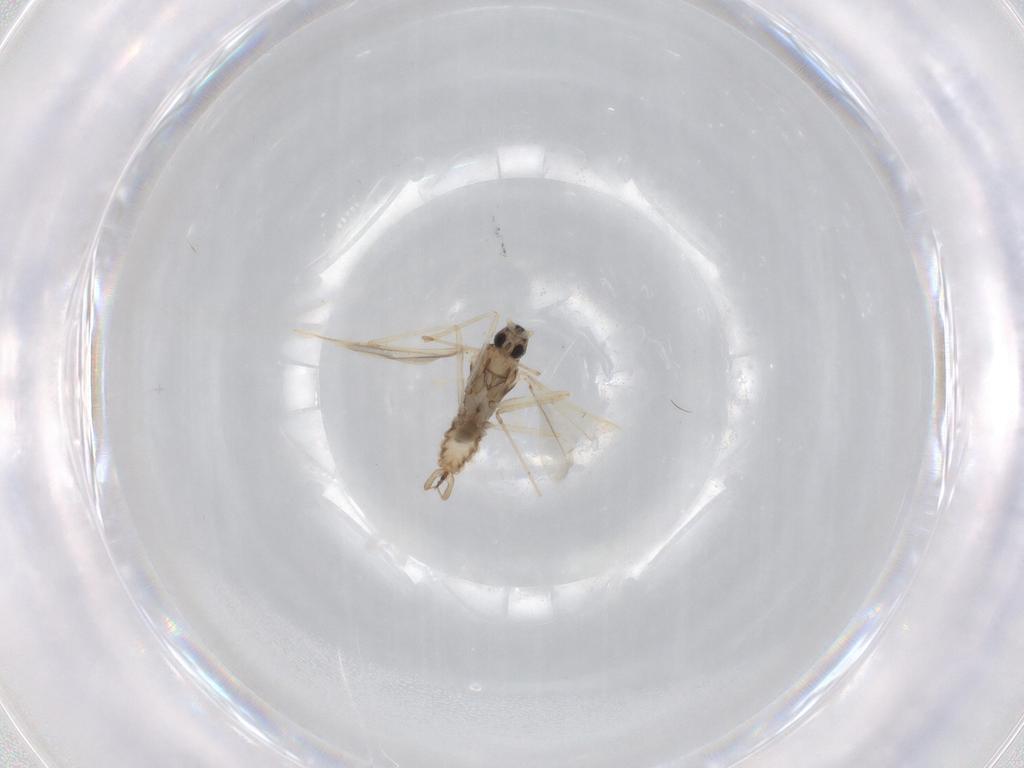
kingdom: Animalia
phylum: Arthropoda
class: Insecta
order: Diptera
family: Cecidomyiidae
